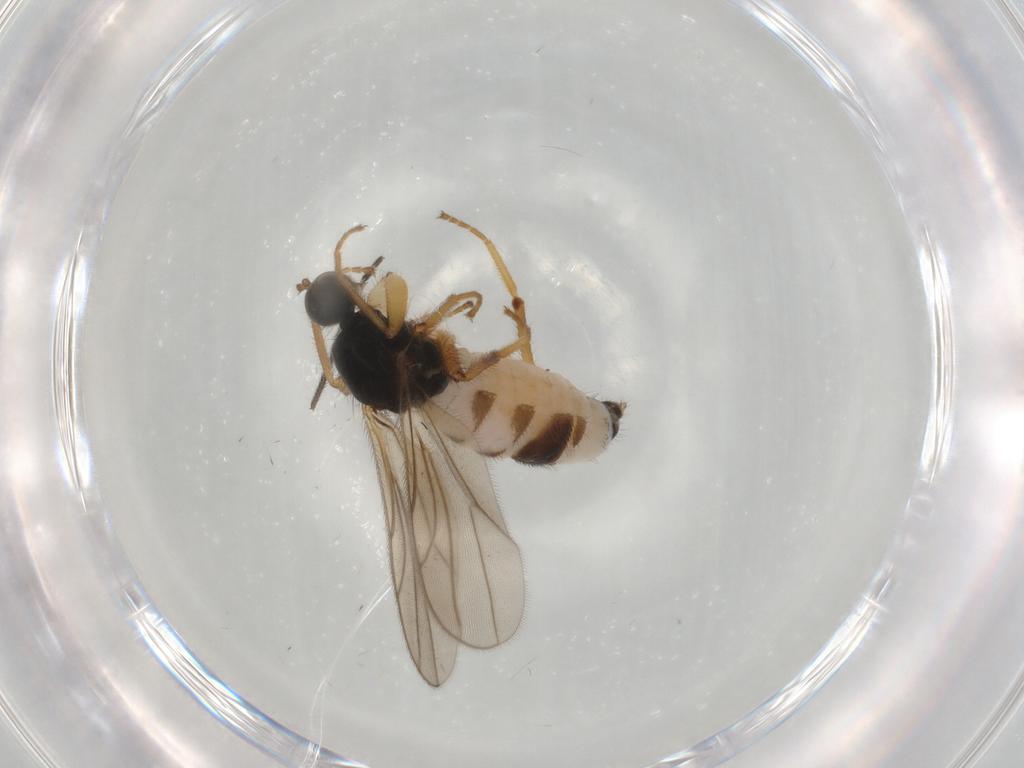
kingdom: Animalia
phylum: Arthropoda
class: Insecta
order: Diptera
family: Hybotidae
